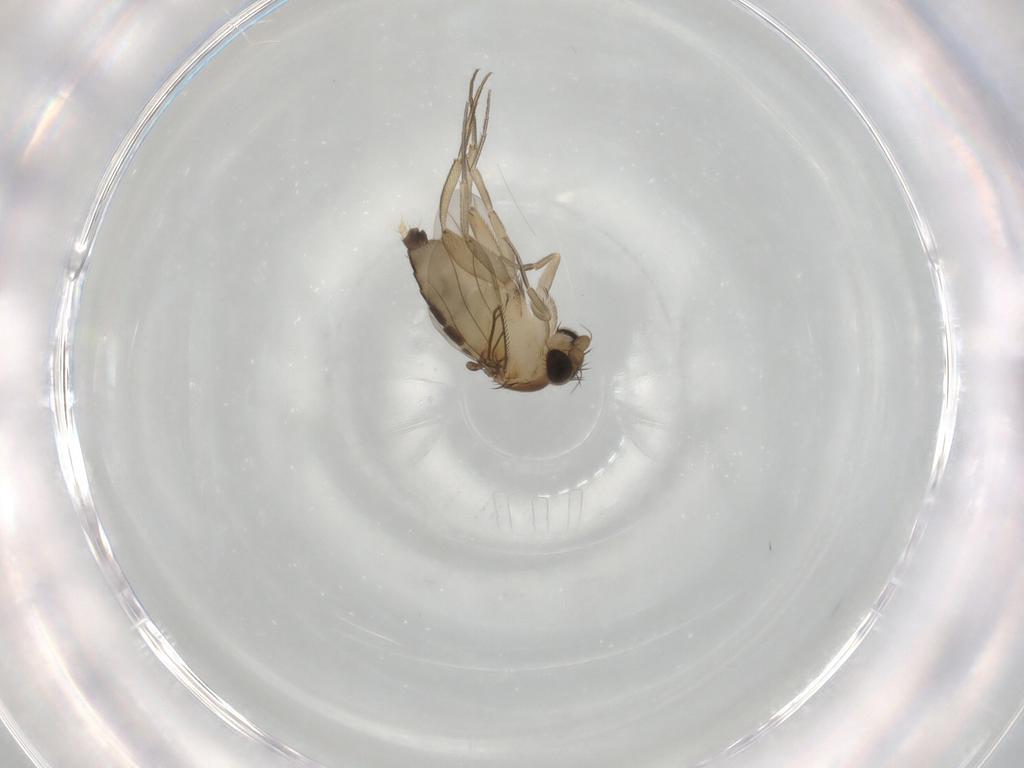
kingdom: Animalia
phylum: Arthropoda
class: Insecta
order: Diptera
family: Phoridae
